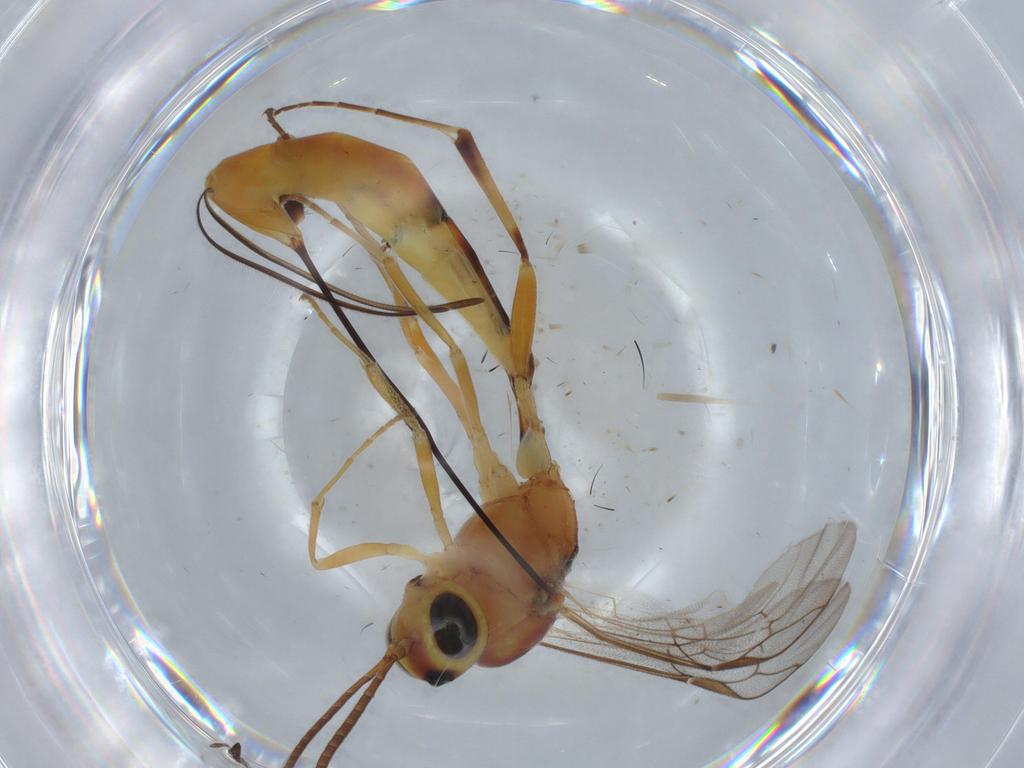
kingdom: Animalia
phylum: Arthropoda
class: Insecta
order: Hymenoptera
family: Ichneumonidae
